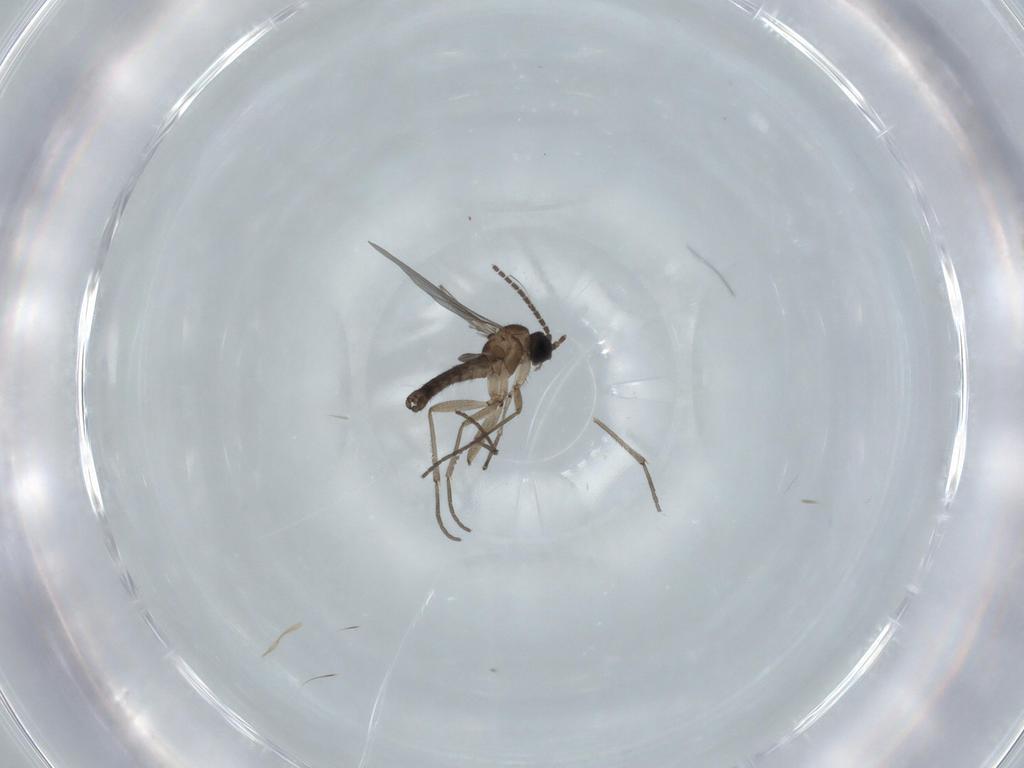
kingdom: Animalia
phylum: Arthropoda
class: Insecta
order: Diptera
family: Sciaridae
